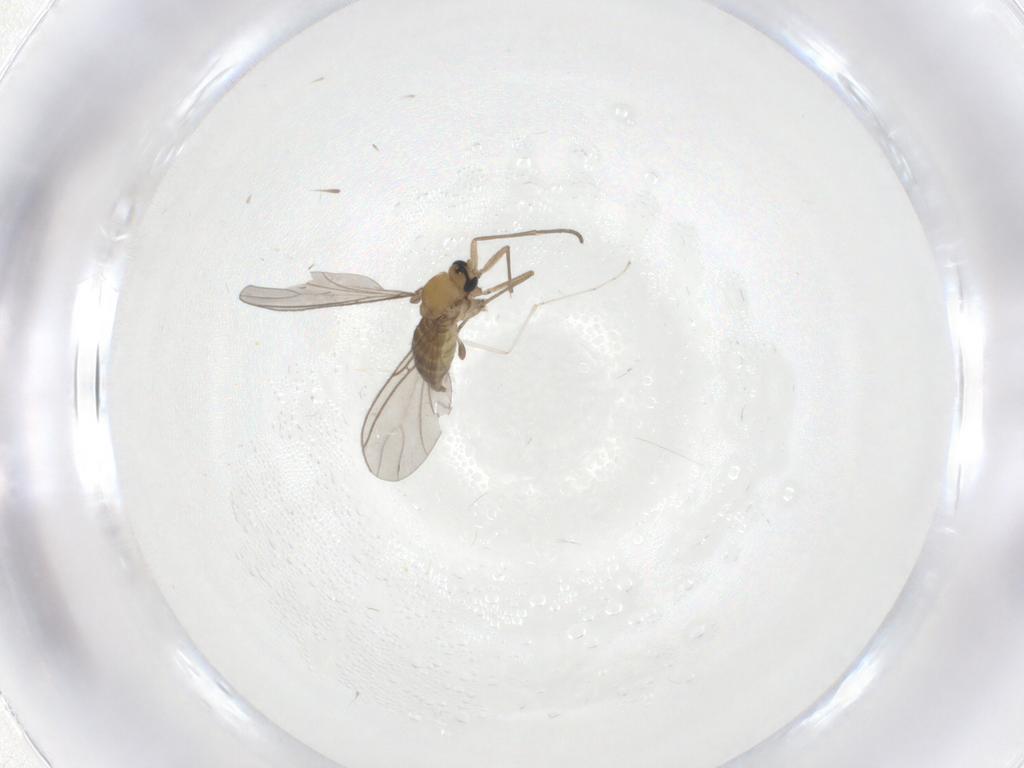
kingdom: Animalia
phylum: Arthropoda
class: Insecta
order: Diptera
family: Sciaridae
